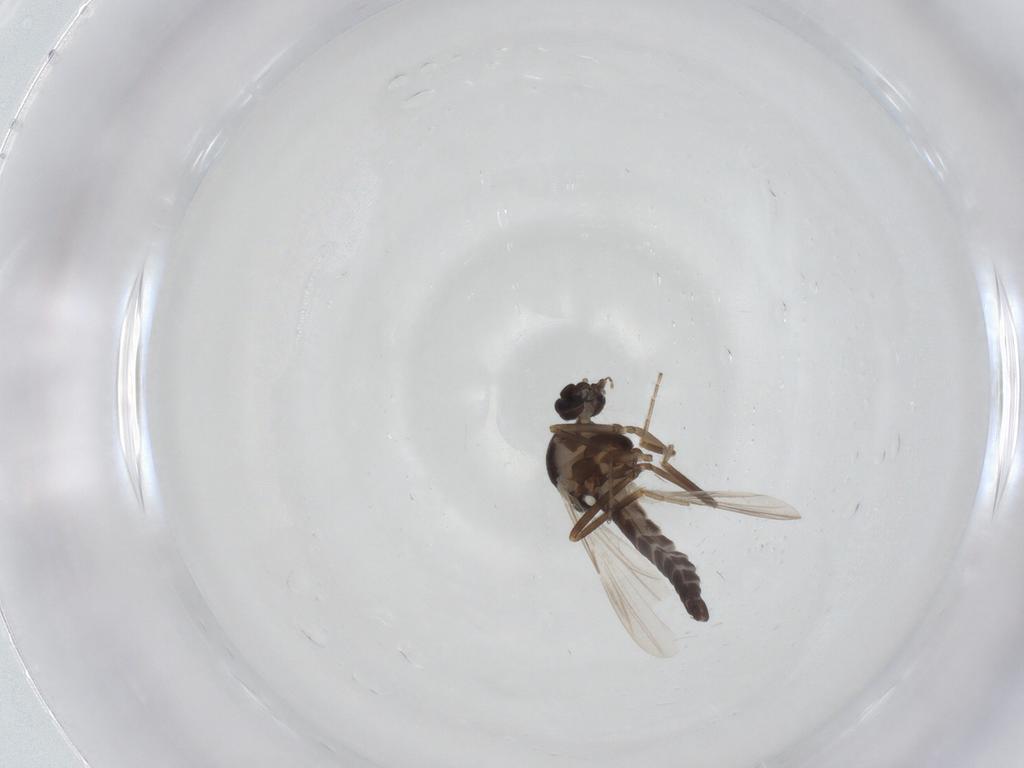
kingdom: Animalia
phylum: Arthropoda
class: Insecta
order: Diptera
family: Ceratopogonidae
